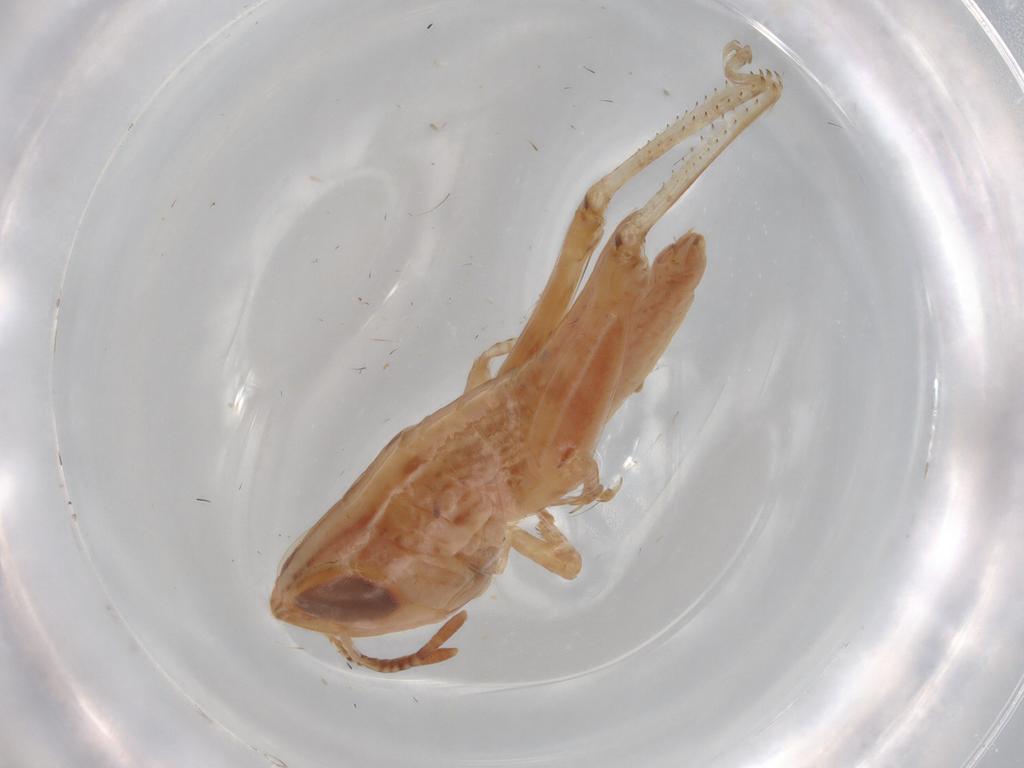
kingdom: Animalia
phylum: Arthropoda
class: Insecta
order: Orthoptera
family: Acrididae
